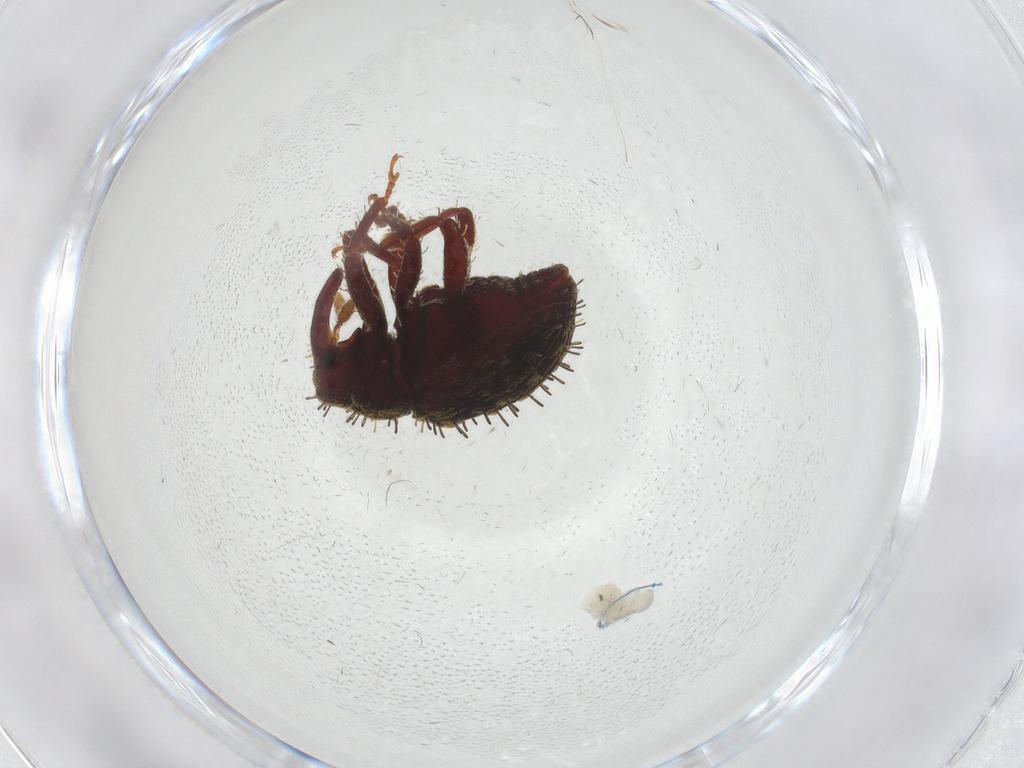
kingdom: Animalia
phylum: Arthropoda
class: Insecta
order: Coleoptera
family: Curculionidae
